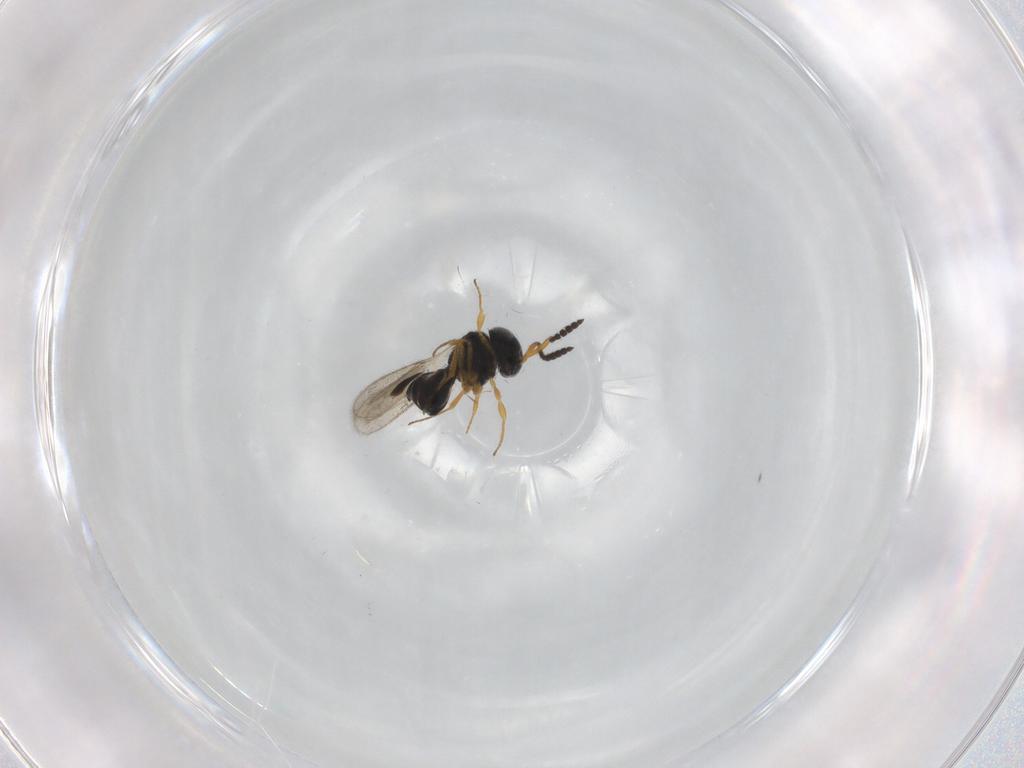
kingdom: Animalia
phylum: Arthropoda
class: Insecta
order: Hymenoptera
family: Scelionidae
